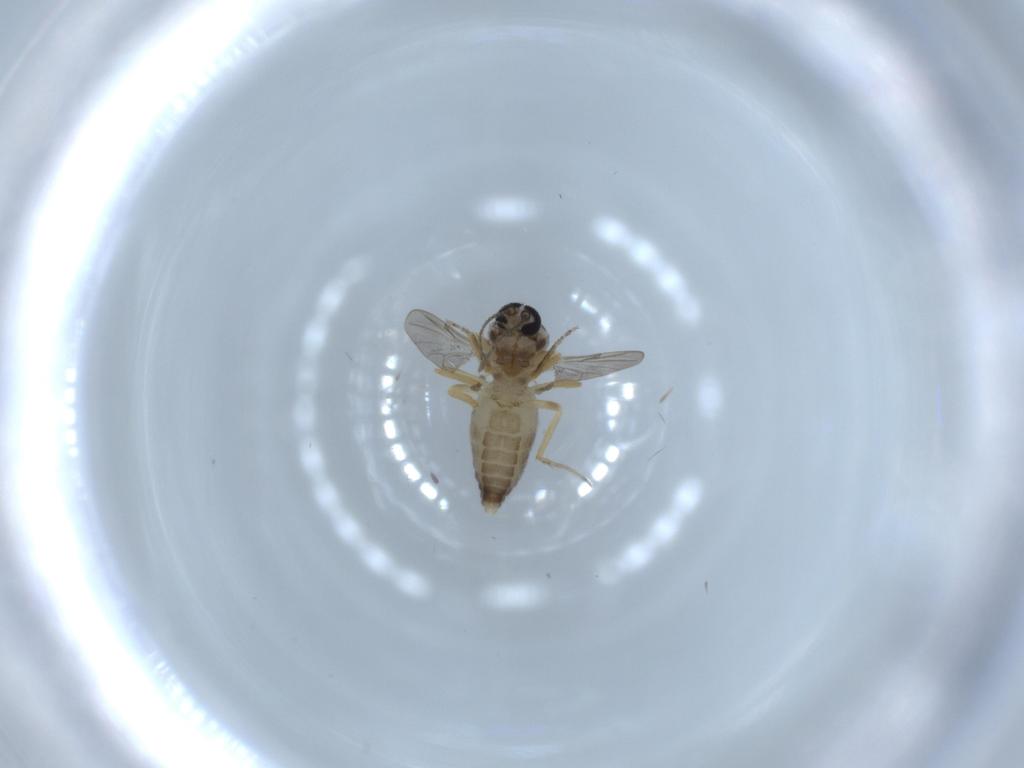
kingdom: Animalia
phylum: Arthropoda
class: Insecta
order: Diptera
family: Ceratopogonidae
